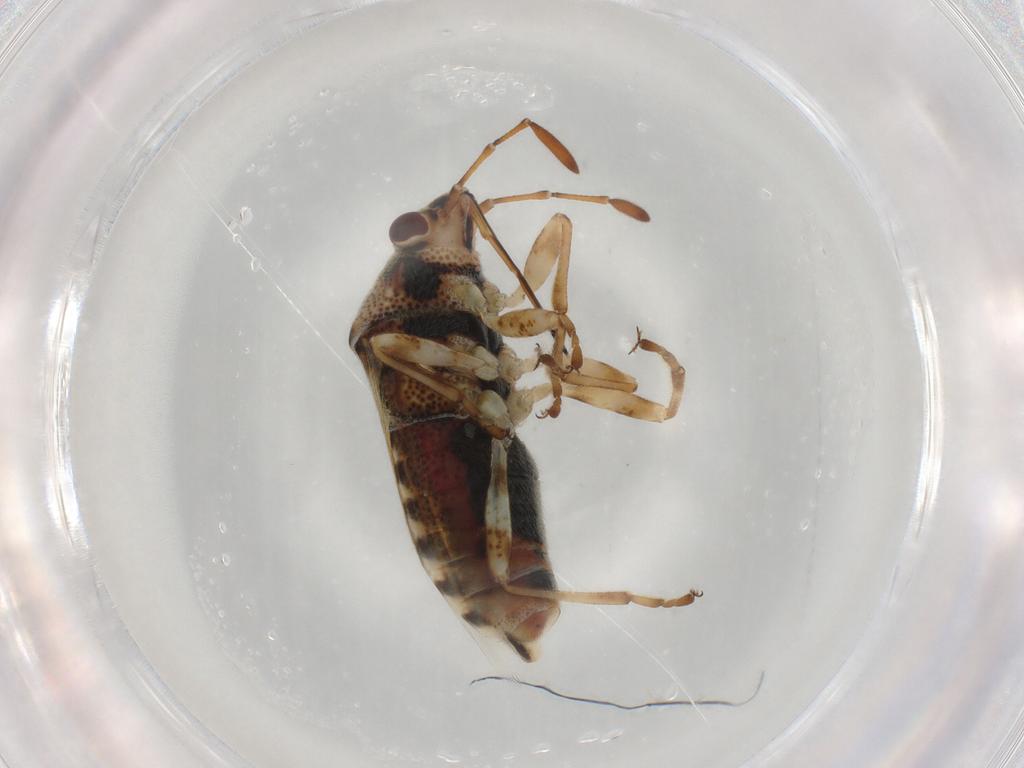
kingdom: Animalia
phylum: Arthropoda
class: Insecta
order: Hemiptera
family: Lygaeidae
